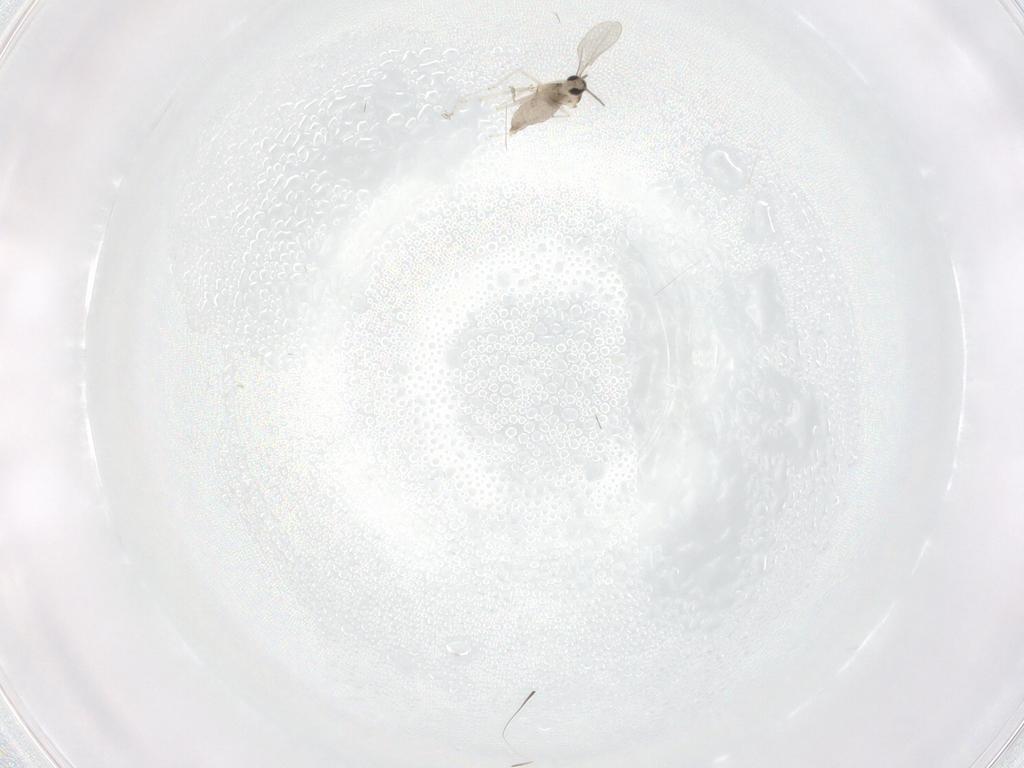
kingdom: Animalia
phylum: Arthropoda
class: Insecta
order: Diptera
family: Cecidomyiidae
